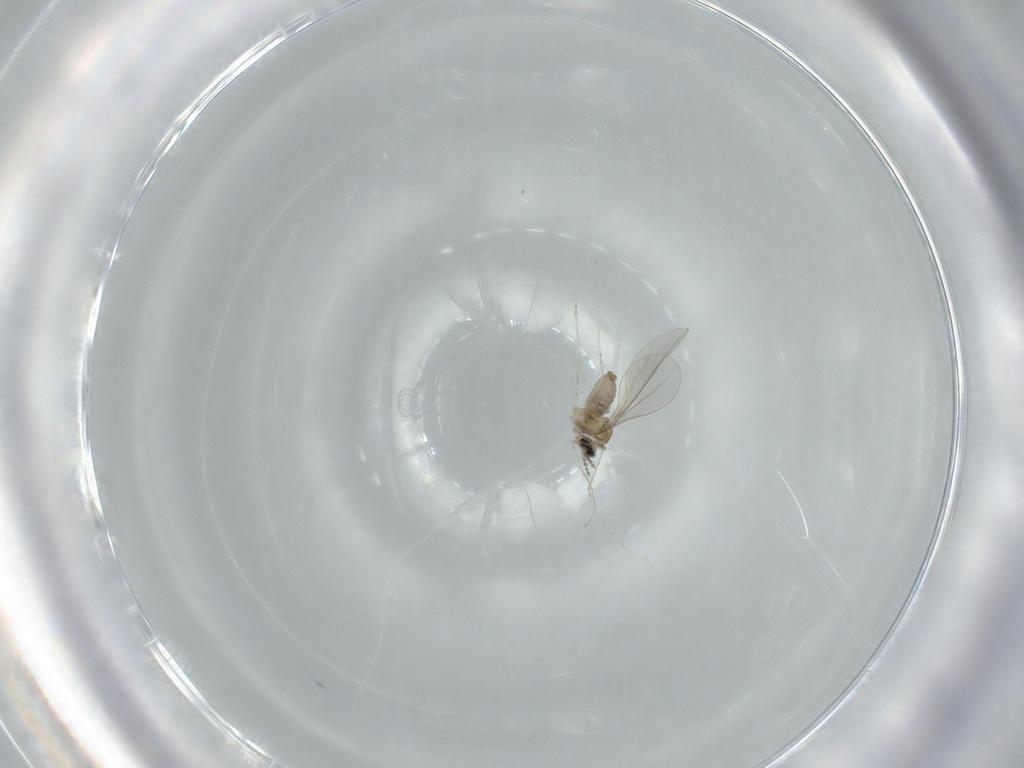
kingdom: Animalia
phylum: Arthropoda
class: Insecta
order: Diptera
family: Cecidomyiidae
